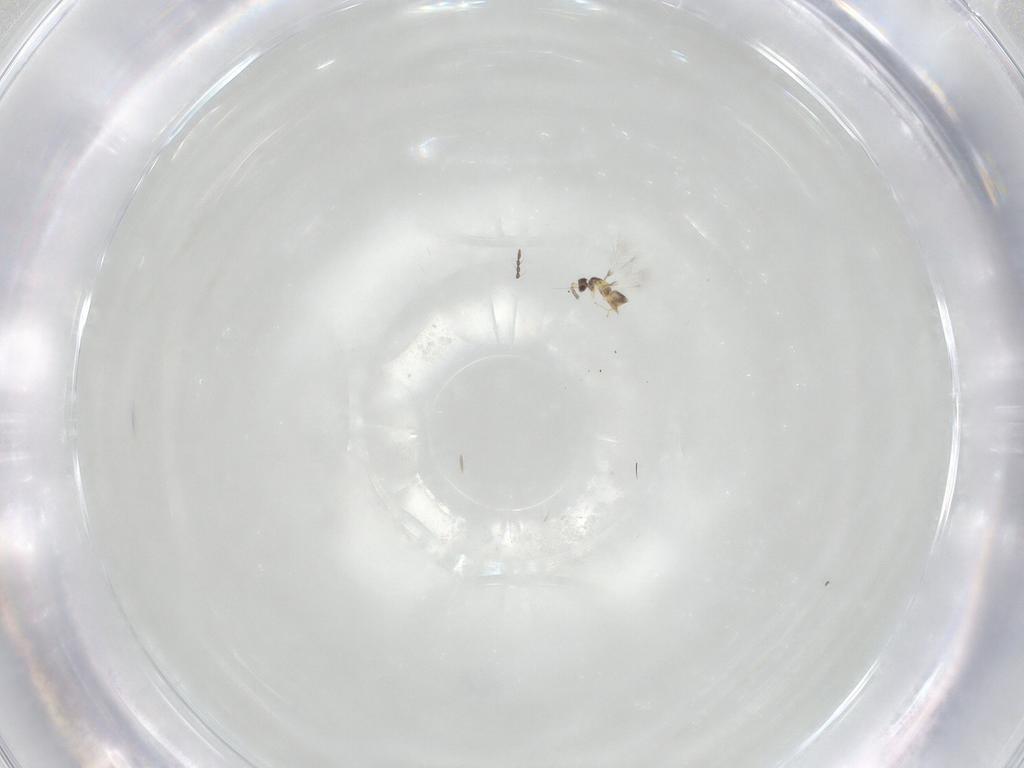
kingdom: Animalia
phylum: Arthropoda
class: Insecta
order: Hymenoptera
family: Mymaridae
